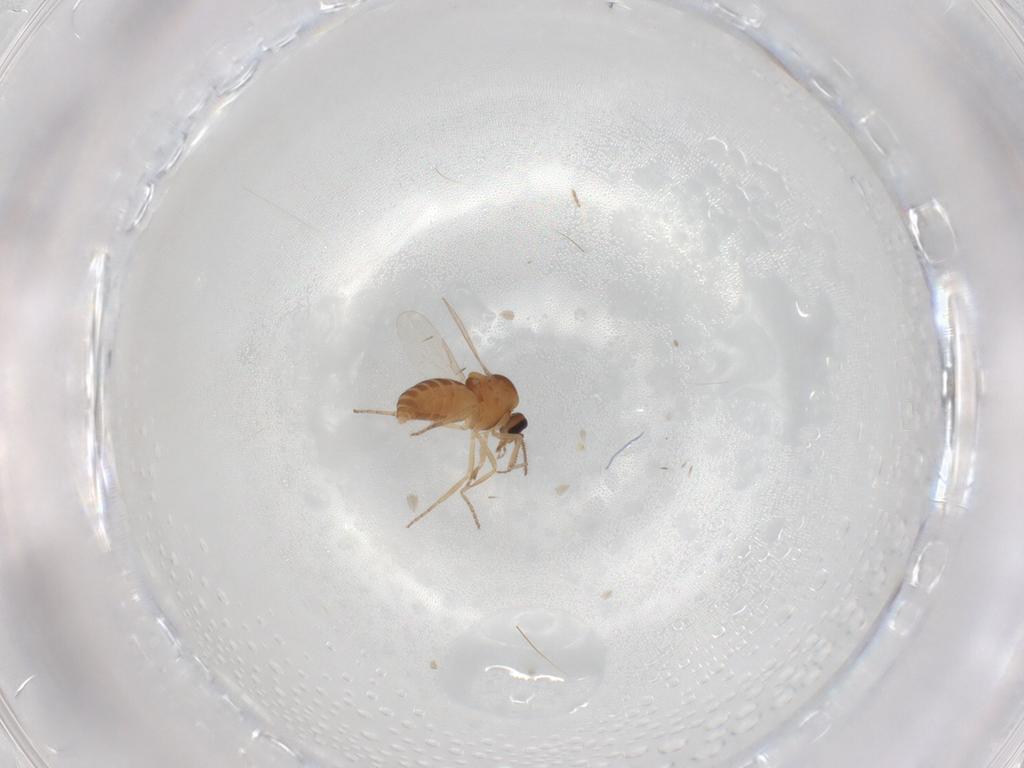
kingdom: Animalia
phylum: Arthropoda
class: Insecta
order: Diptera
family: Ceratopogonidae
